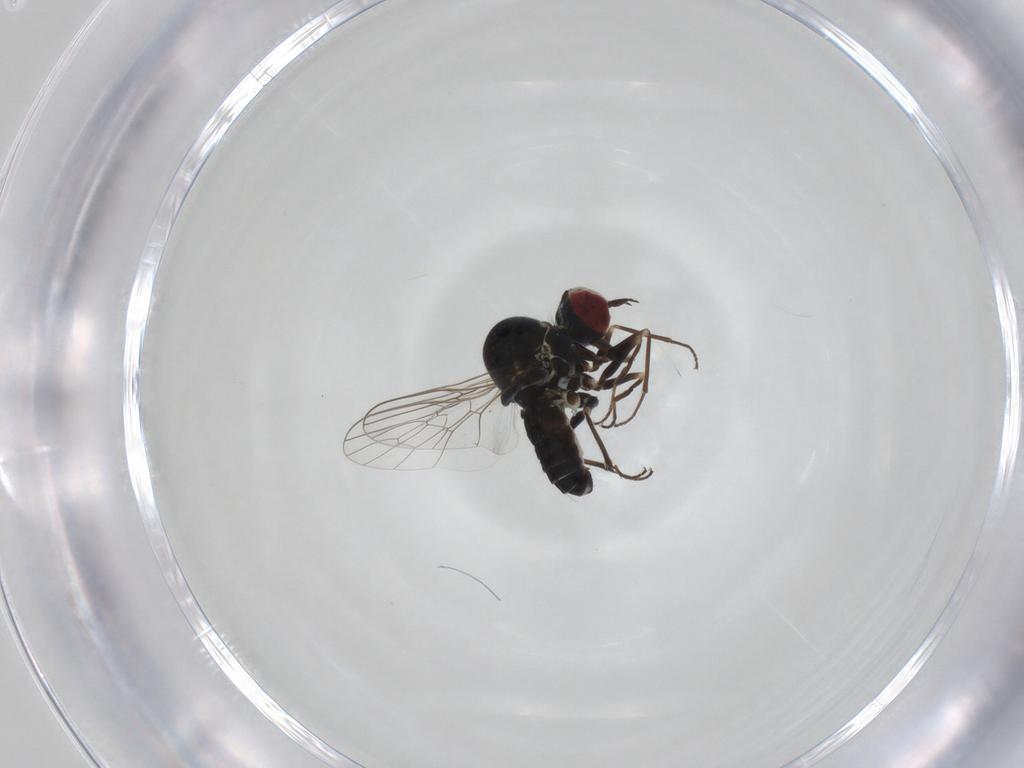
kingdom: Animalia
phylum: Arthropoda
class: Insecta
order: Diptera
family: Bombyliidae
